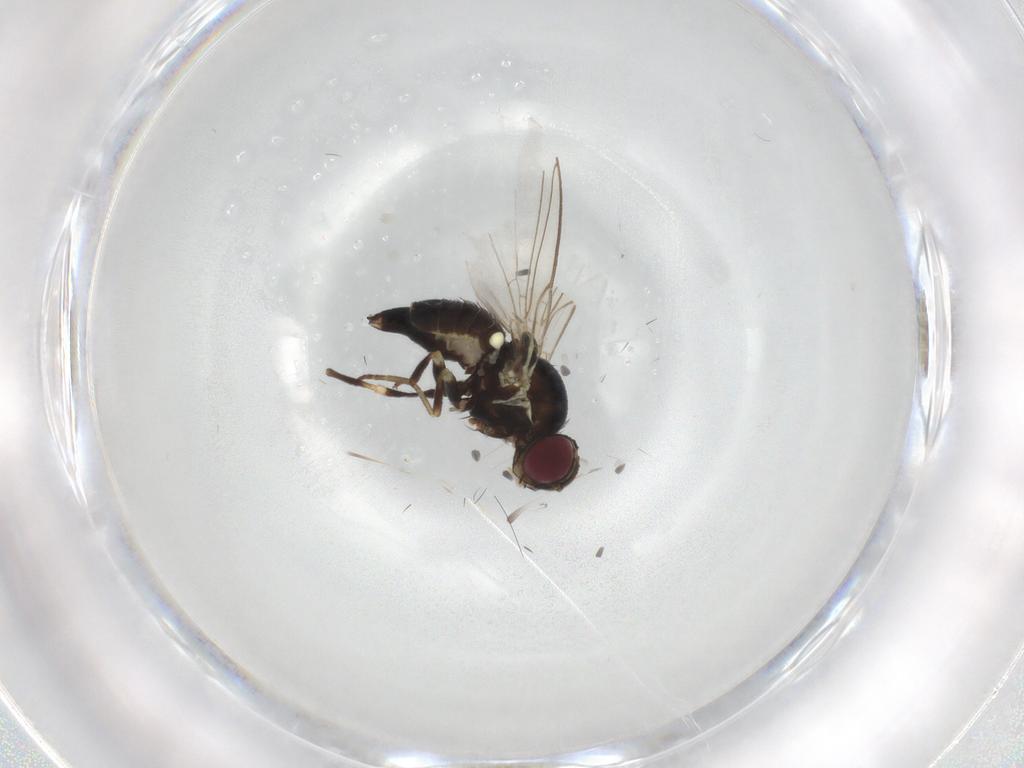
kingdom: Animalia
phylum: Arthropoda
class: Insecta
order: Diptera
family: Agromyzidae
